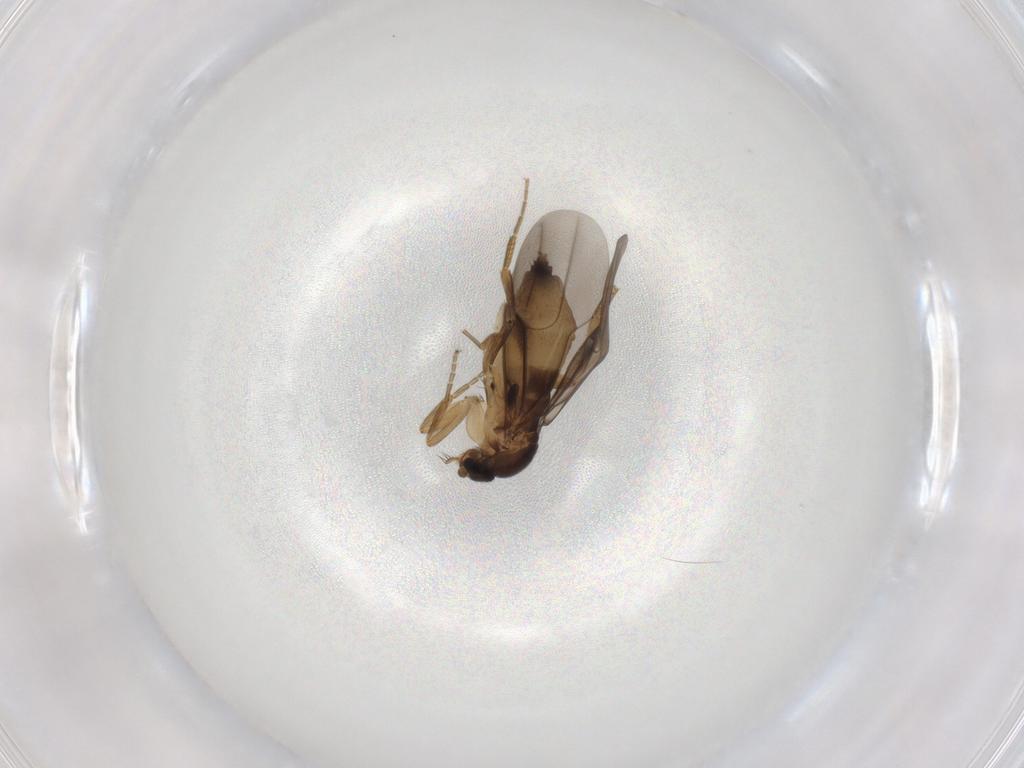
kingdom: Animalia
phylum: Arthropoda
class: Insecta
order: Diptera
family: Phoridae
